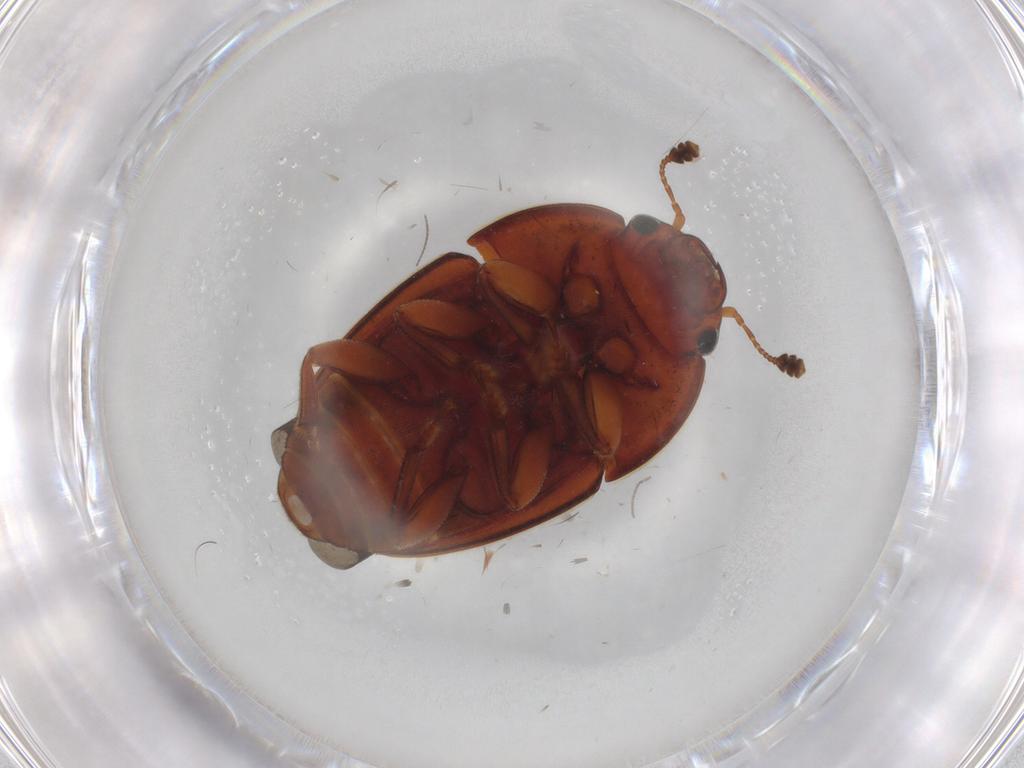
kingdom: Animalia
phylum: Arthropoda
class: Insecta
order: Coleoptera
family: Nitidulidae
